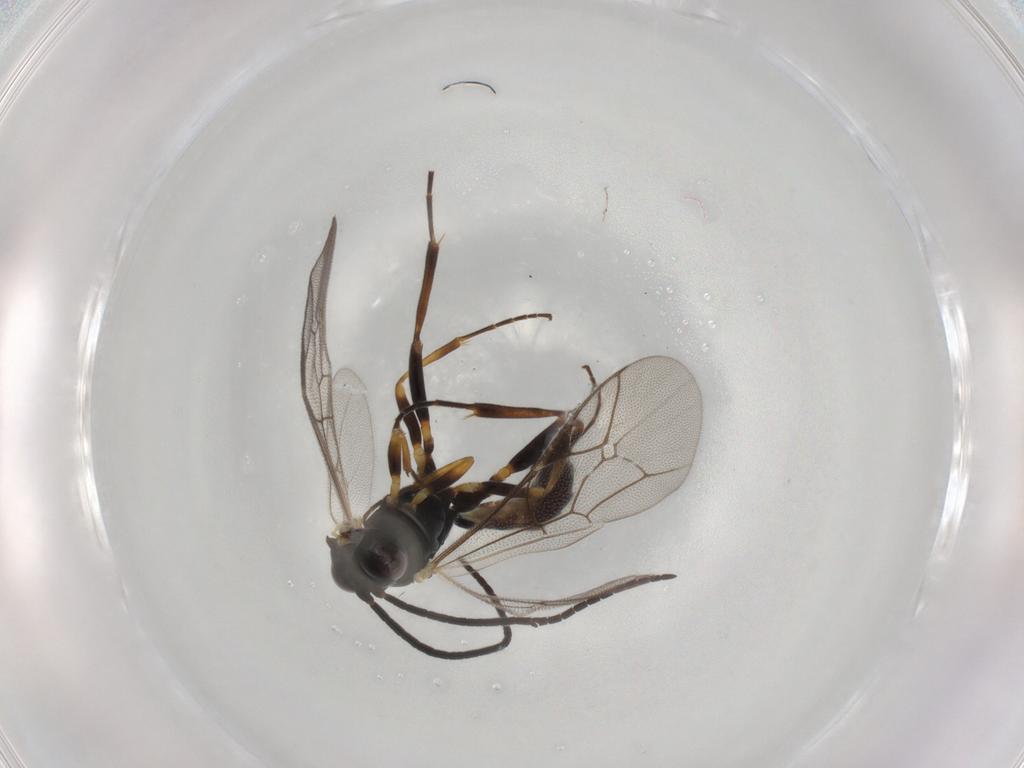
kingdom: Animalia
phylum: Arthropoda
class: Insecta
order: Hymenoptera
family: Ichneumonidae
